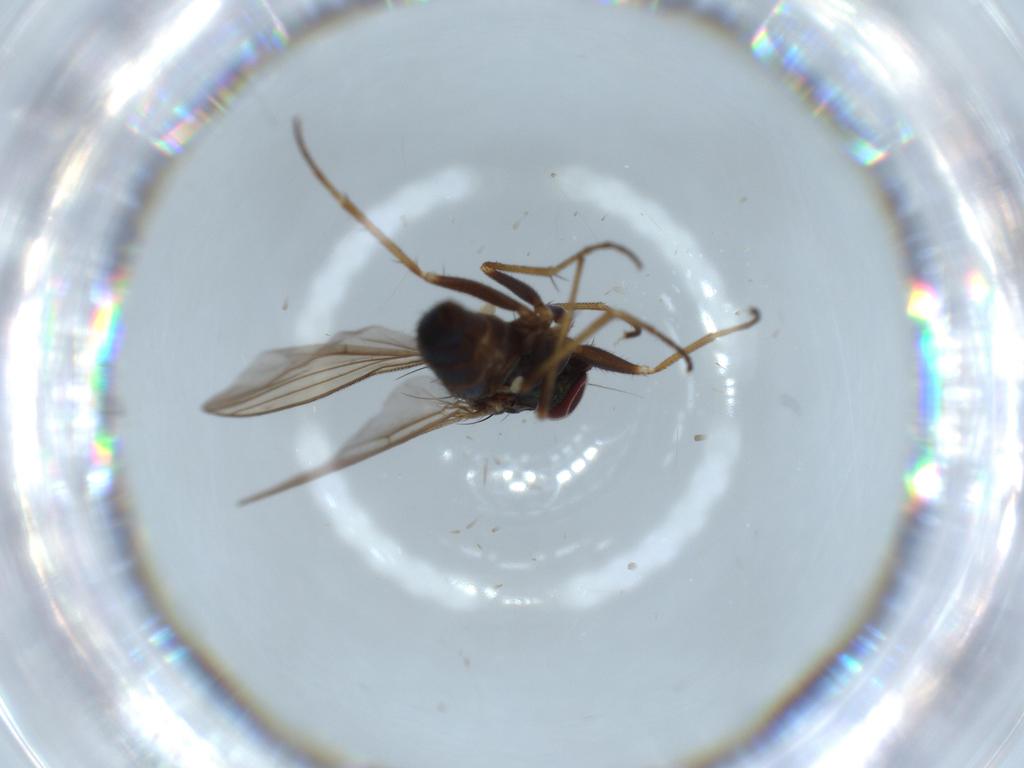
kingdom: Animalia
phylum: Arthropoda
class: Insecta
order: Diptera
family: Dolichopodidae
